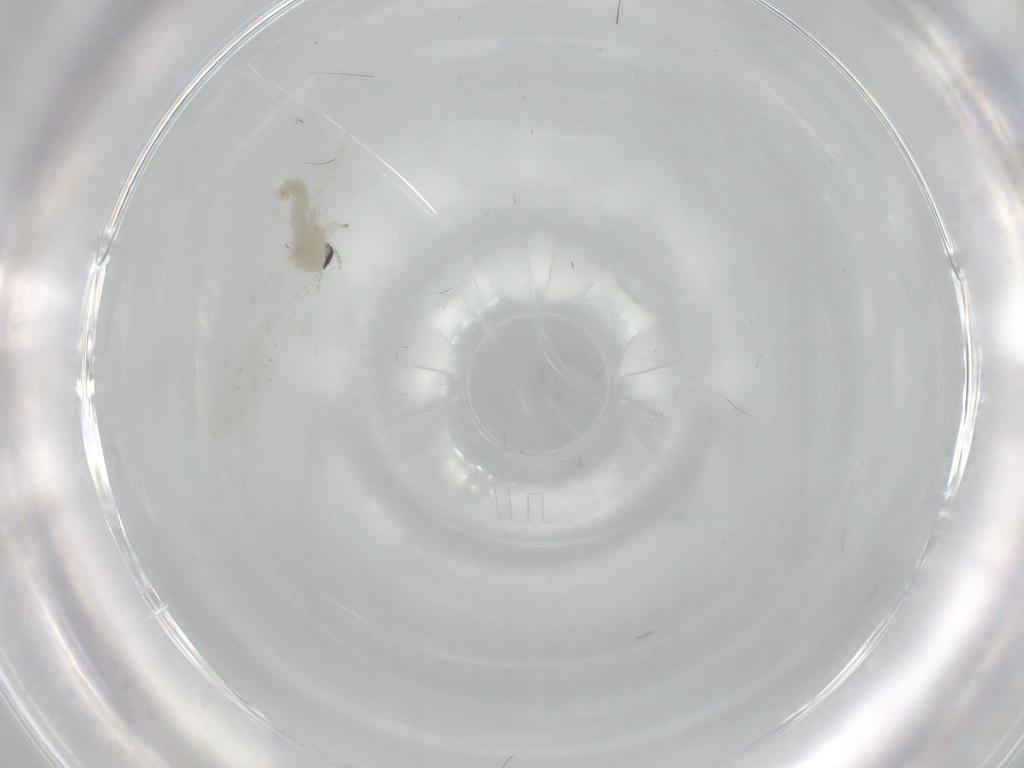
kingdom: Animalia
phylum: Arthropoda
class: Insecta
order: Diptera
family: Cecidomyiidae
